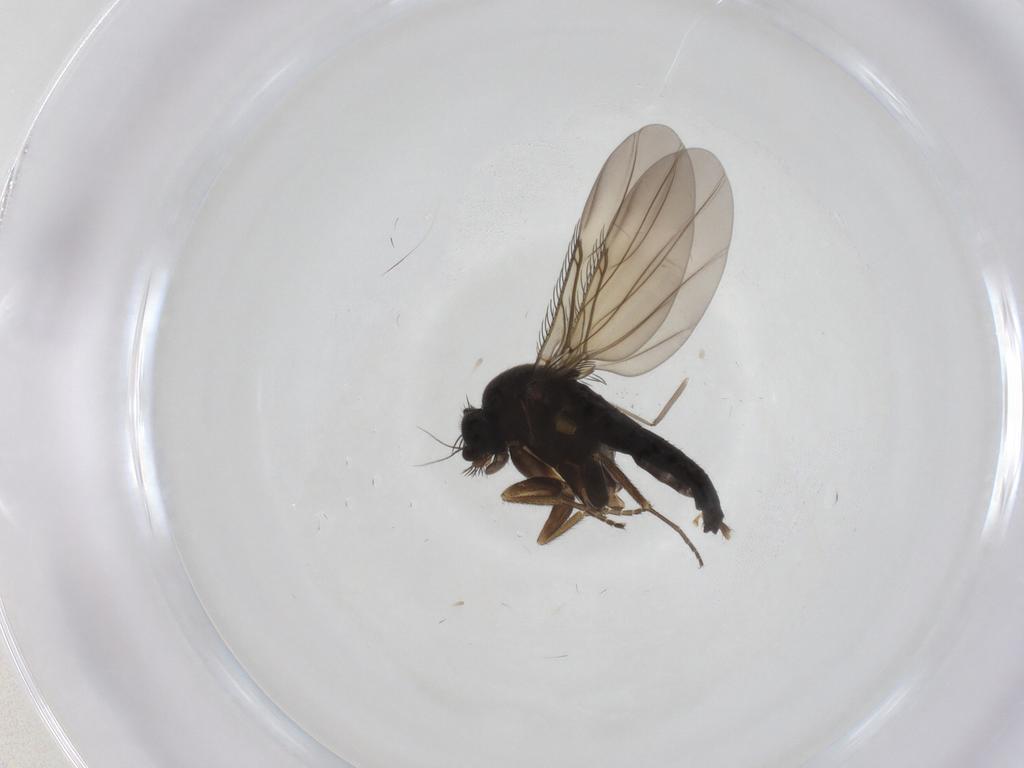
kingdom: Animalia
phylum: Arthropoda
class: Insecta
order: Diptera
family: Phoridae
